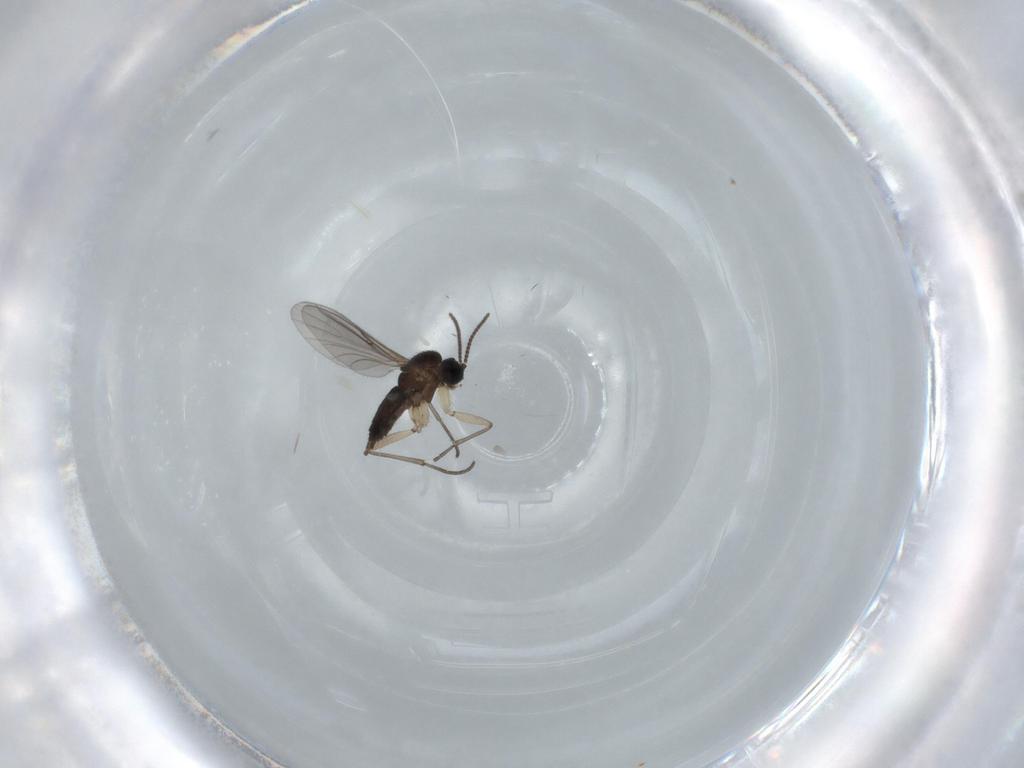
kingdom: Animalia
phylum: Arthropoda
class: Insecta
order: Diptera
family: Sciaridae
